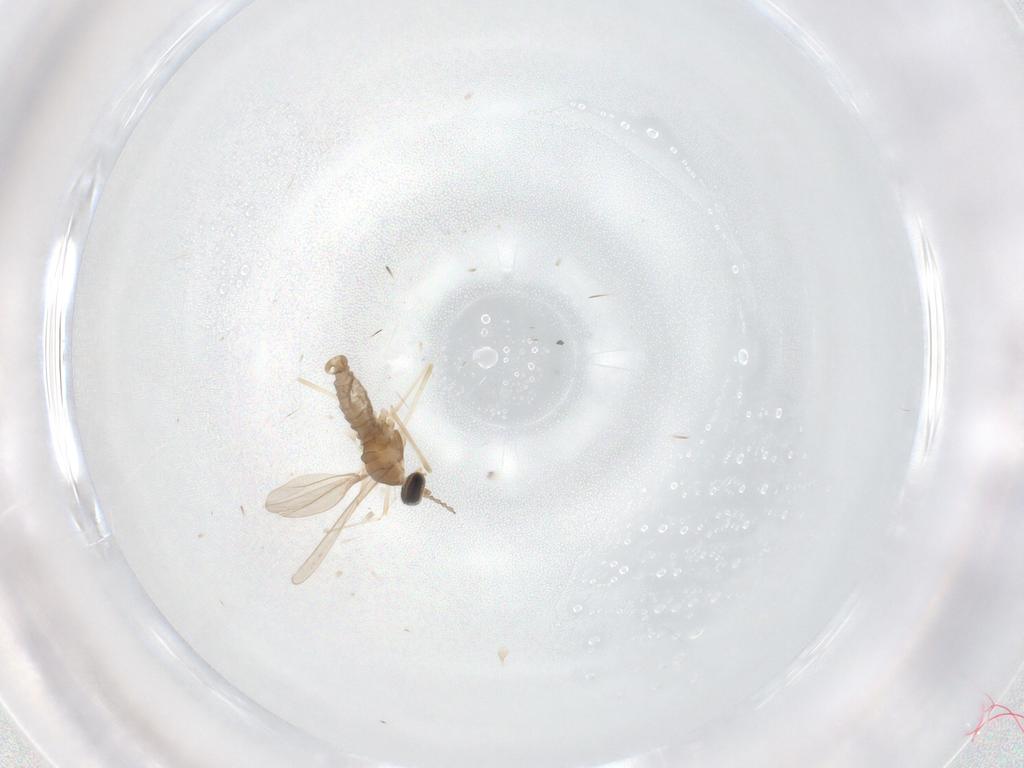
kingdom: Animalia
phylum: Arthropoda
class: Insecta
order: Diptera
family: Cecidomyiidae
